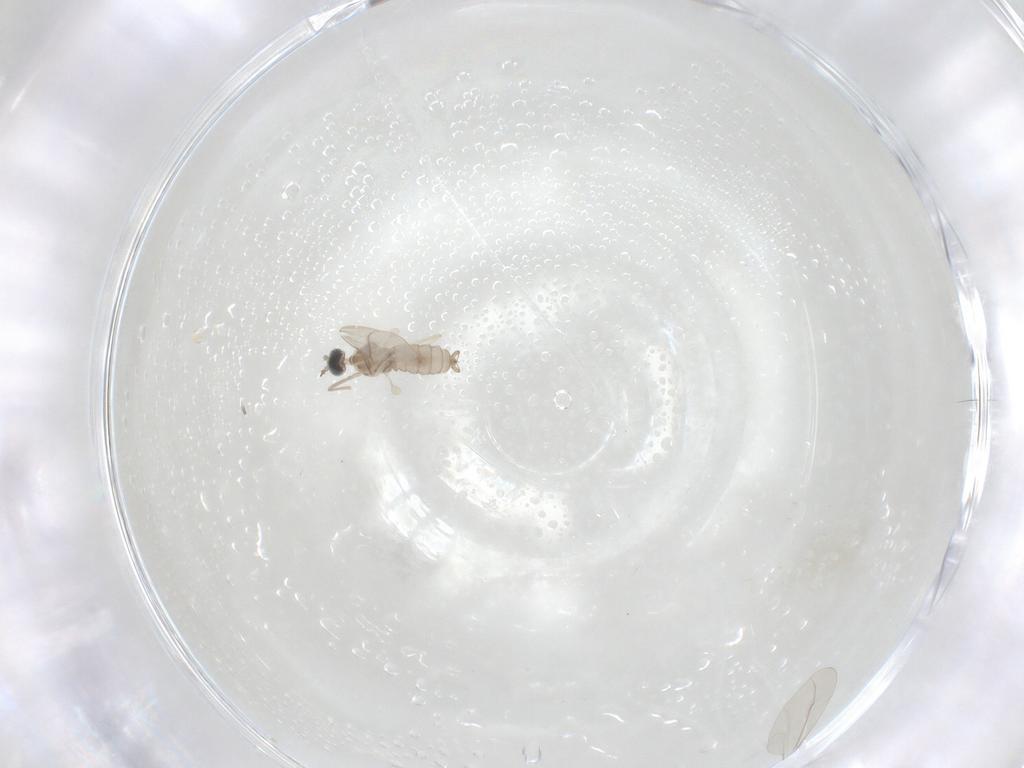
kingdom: Animalia
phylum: Arthropoda
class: Insecta
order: Diptera
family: Cecidomyiidae
